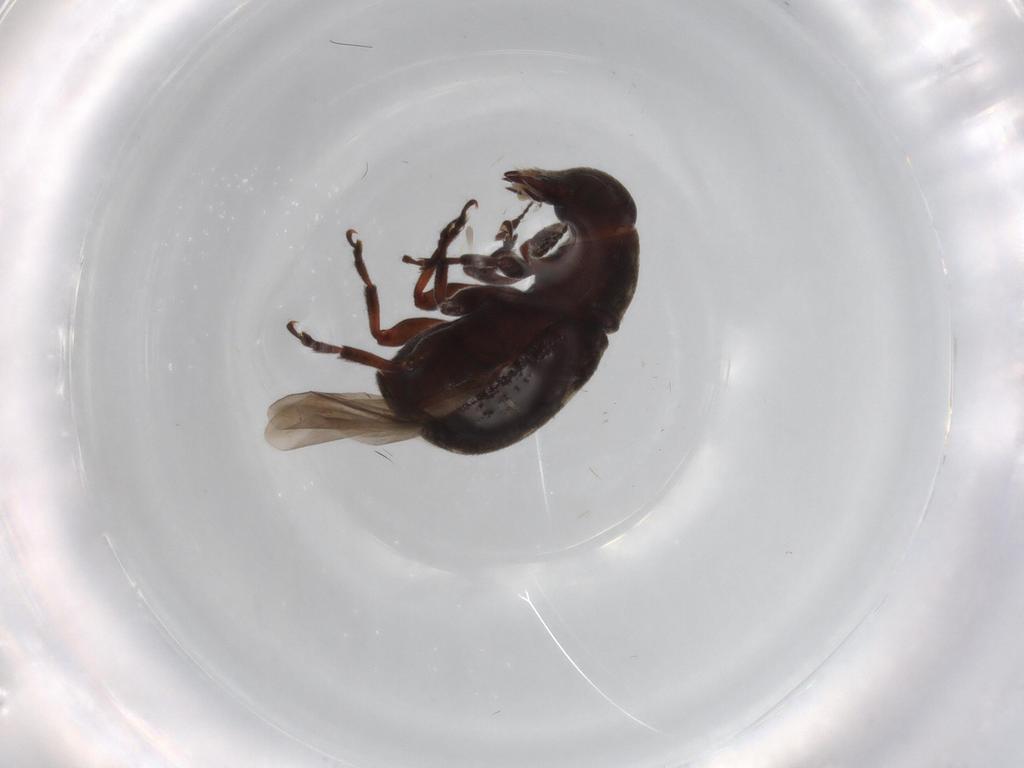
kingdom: Animalia
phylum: Arthropoda
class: Insecta
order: Coleoptera
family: Anthribidae
